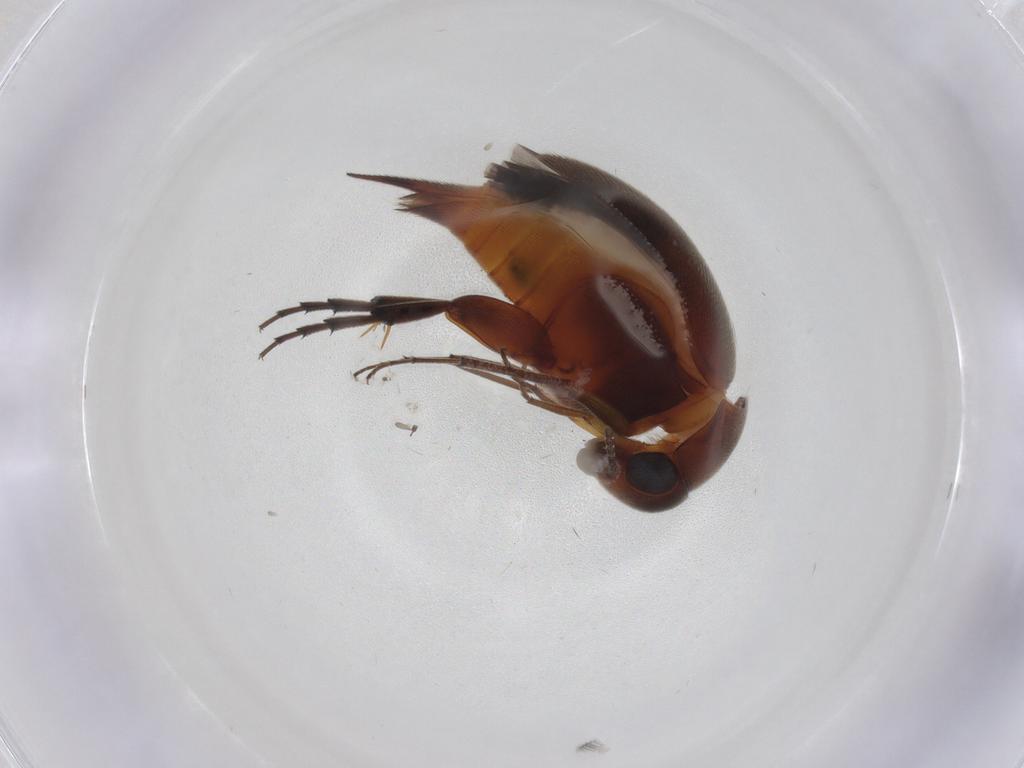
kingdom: Animalia
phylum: Arthropoda
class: Insecta
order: Coleoptera
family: Mordellidae
